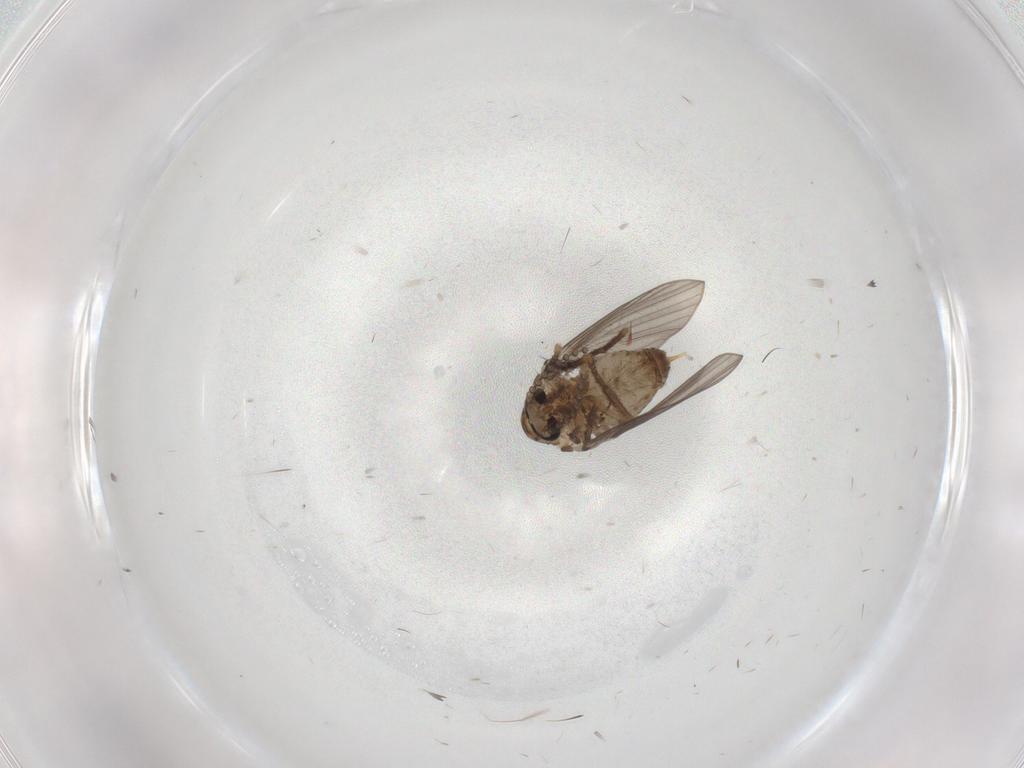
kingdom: Animalia
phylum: Arthropoda
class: Insecta
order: Diptera
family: Psychodidae
